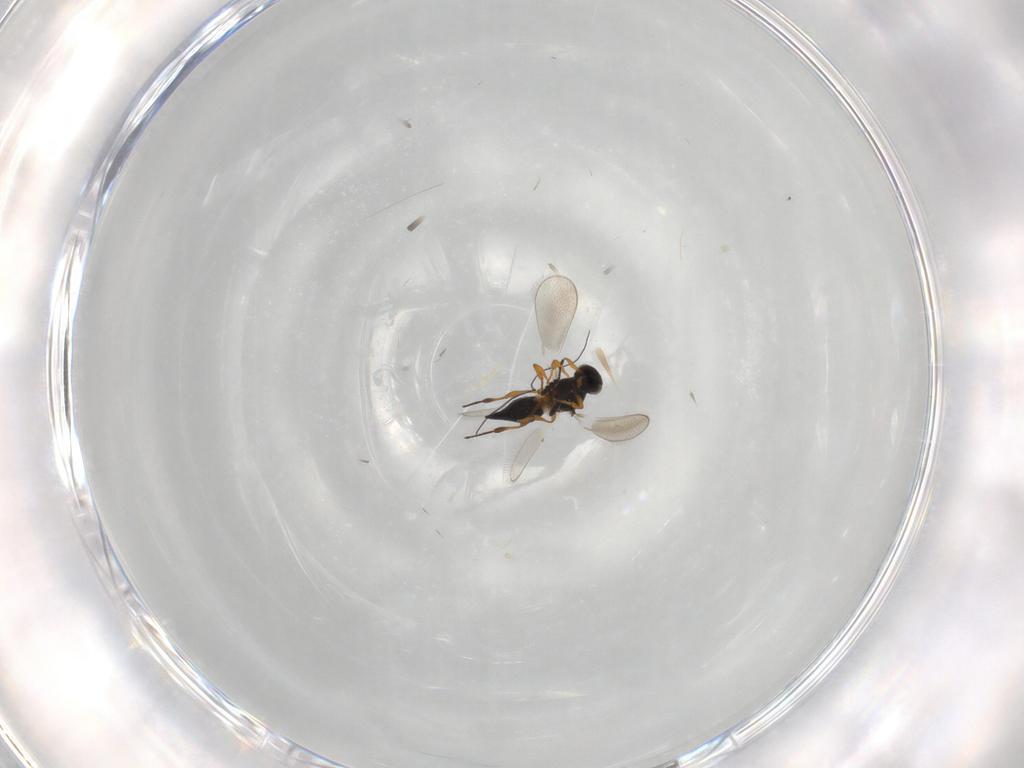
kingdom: Animalia
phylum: Arthropoda
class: Insecta
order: Hymenoptera
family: Platygastridae
